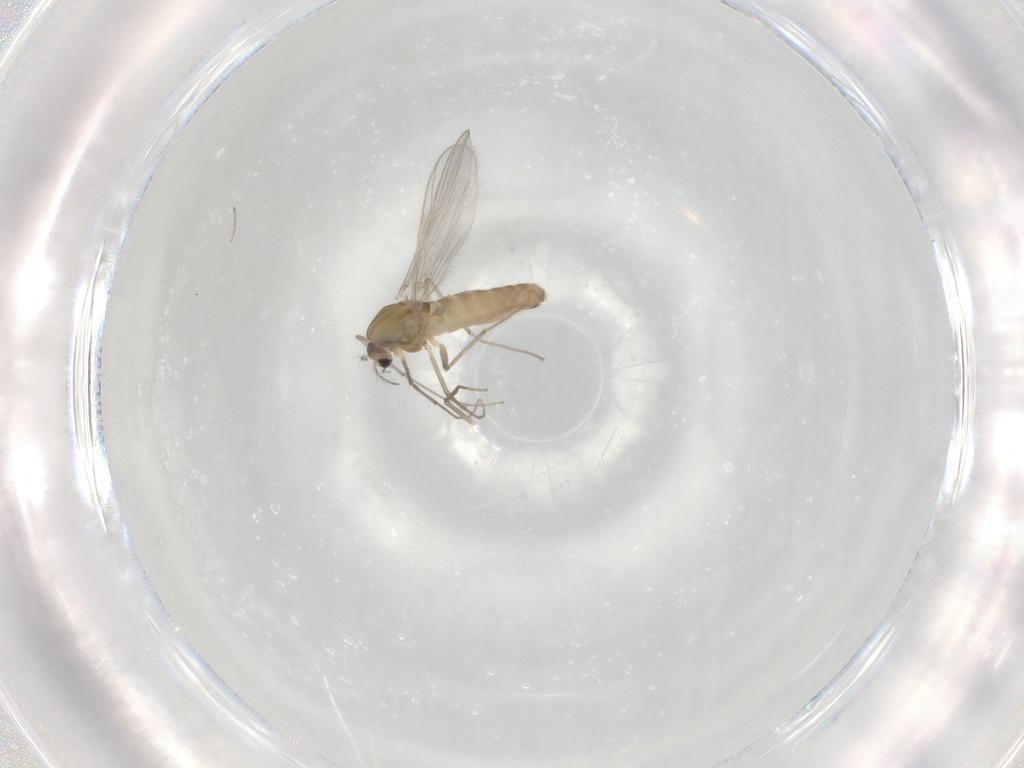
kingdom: Animalia
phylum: Arthropoda
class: Insecta
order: Diptera
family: Chironomidae
